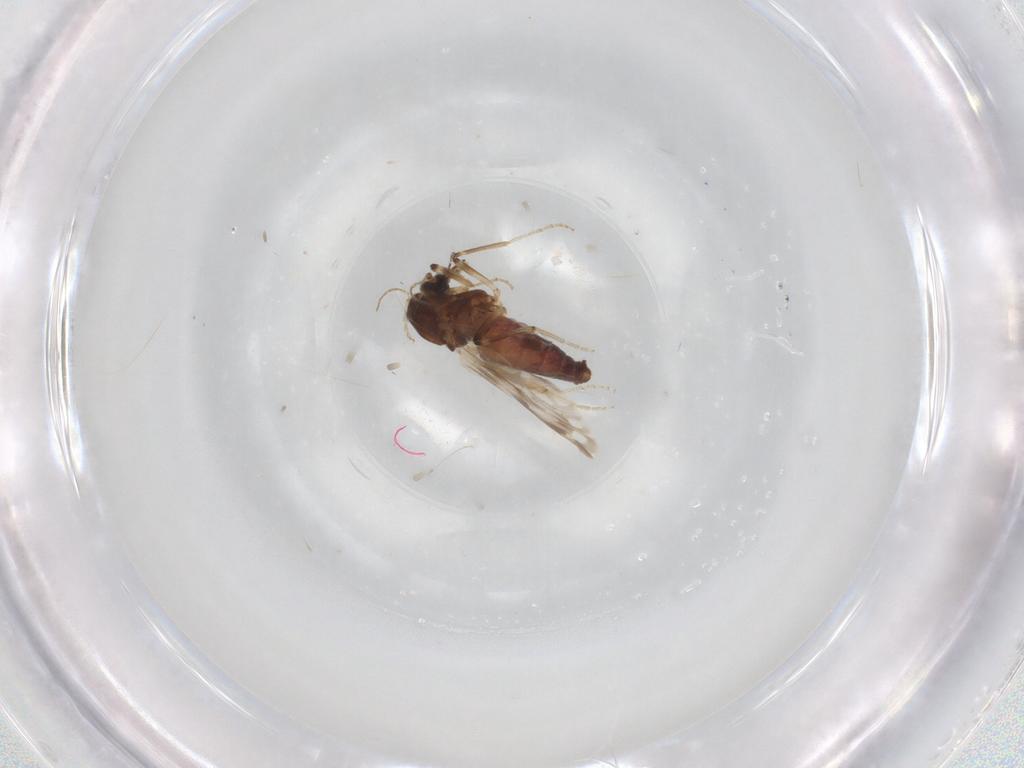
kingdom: Animalia
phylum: Arthropoda
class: Insecta
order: Diptera
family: Ceratopogonidae
